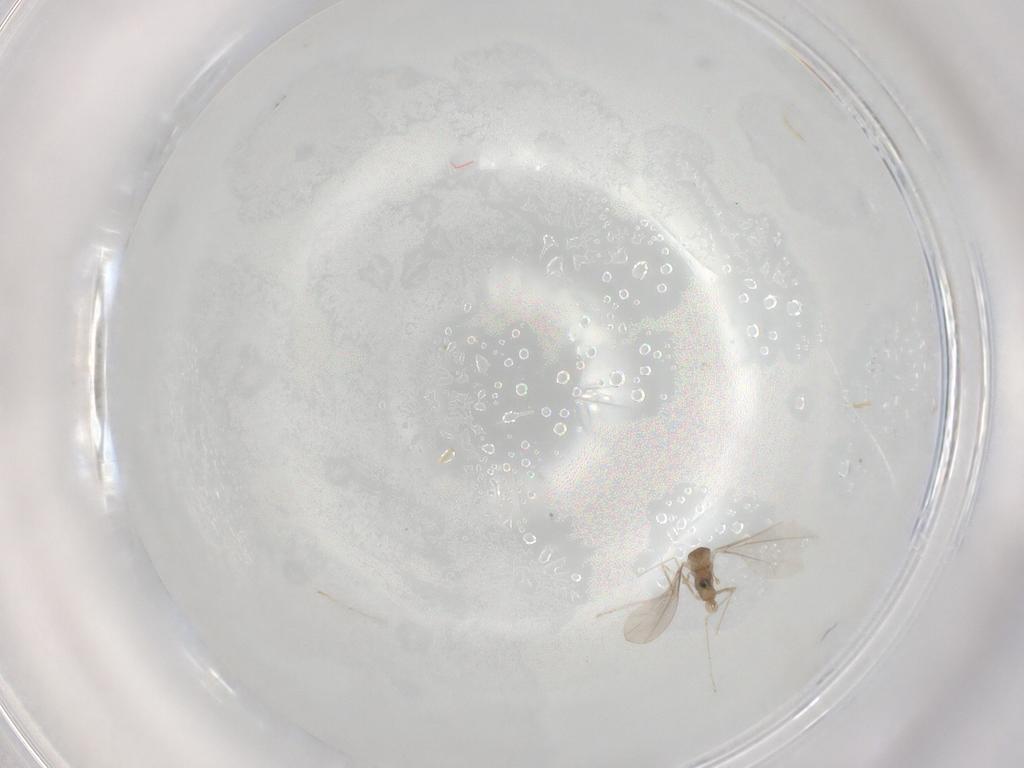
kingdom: Animalia
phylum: Arthropoda
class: Insecta
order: Diptera
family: Cecidomyiidae
